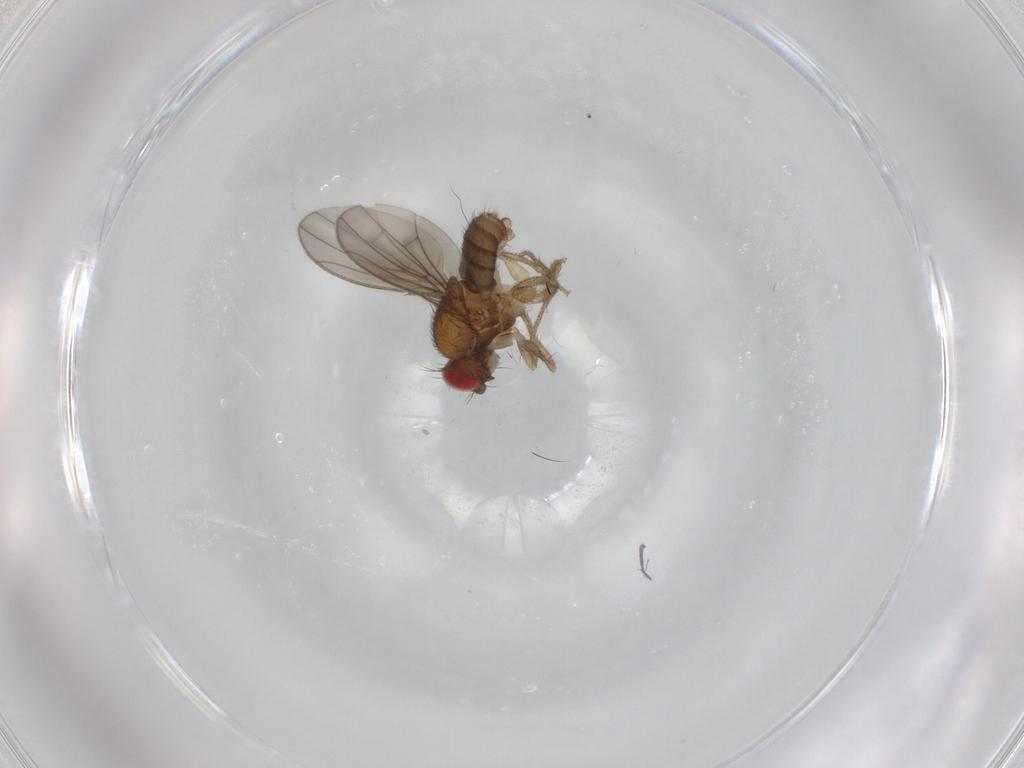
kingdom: Animalia
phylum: Arthropoda
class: Insecta
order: Diptera
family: Drosophilidae
